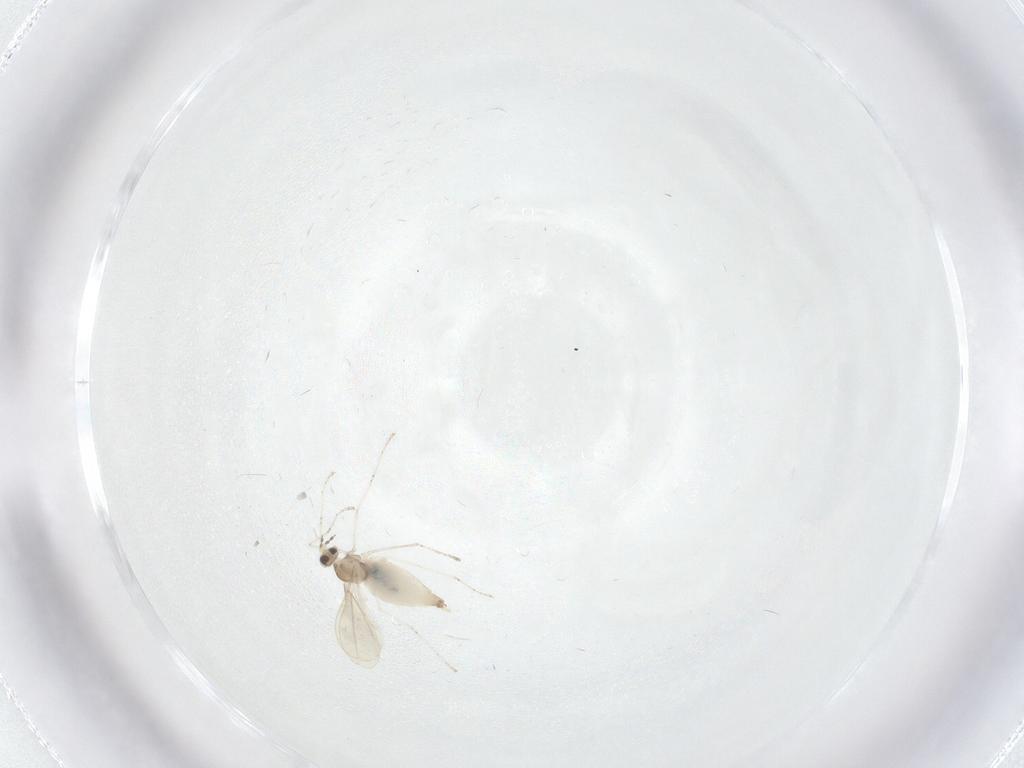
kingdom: Animalia
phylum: Arthropoda
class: Insecta
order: Diptera
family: Cecidomyiidae
